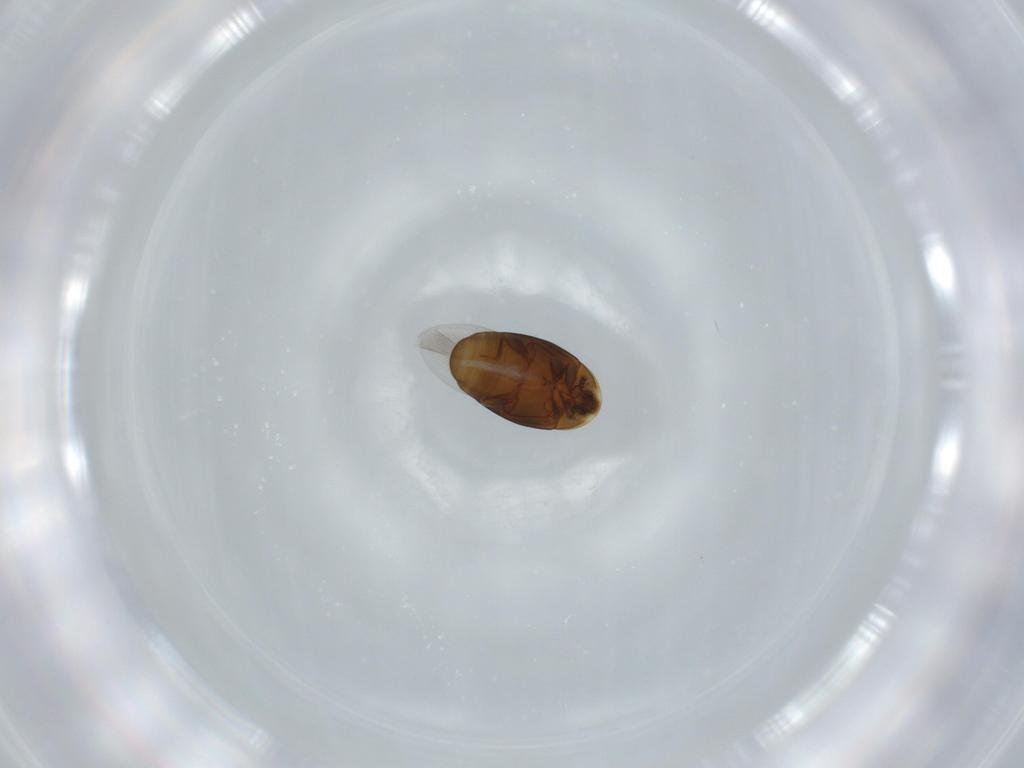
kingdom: Animalia
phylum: Arthropoda
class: Insecta
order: Coleoptera
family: Corylophidae
